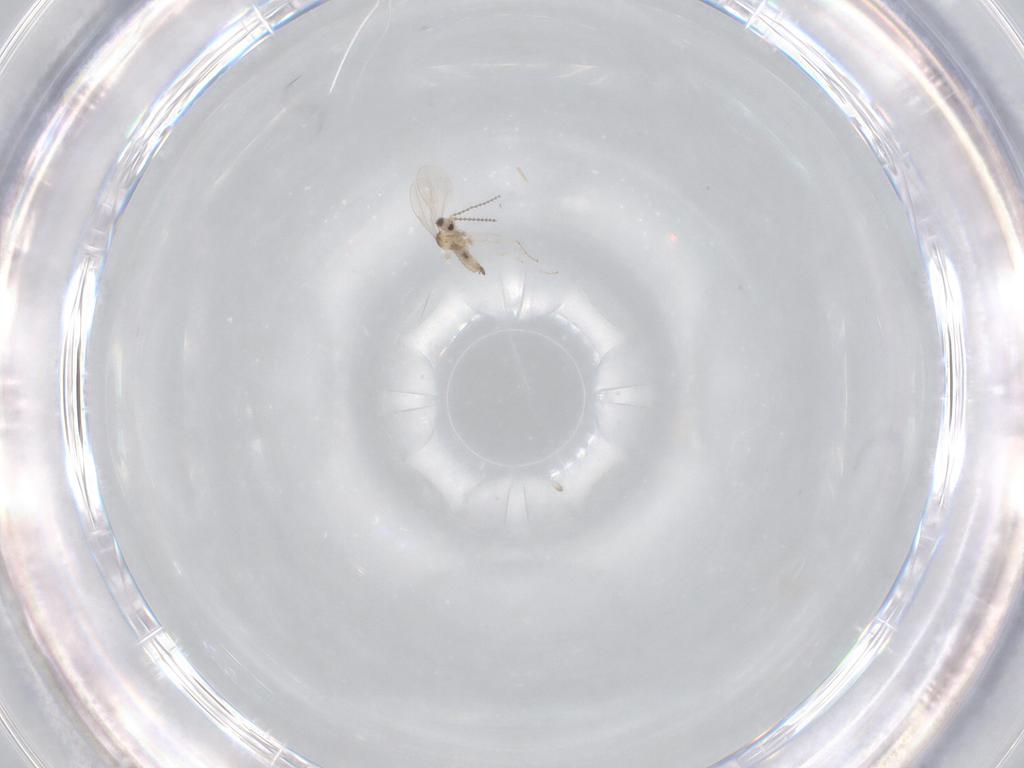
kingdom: Animalia
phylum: Arthropoda
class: Insecta
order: Diptera
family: Cecidomyiidae
